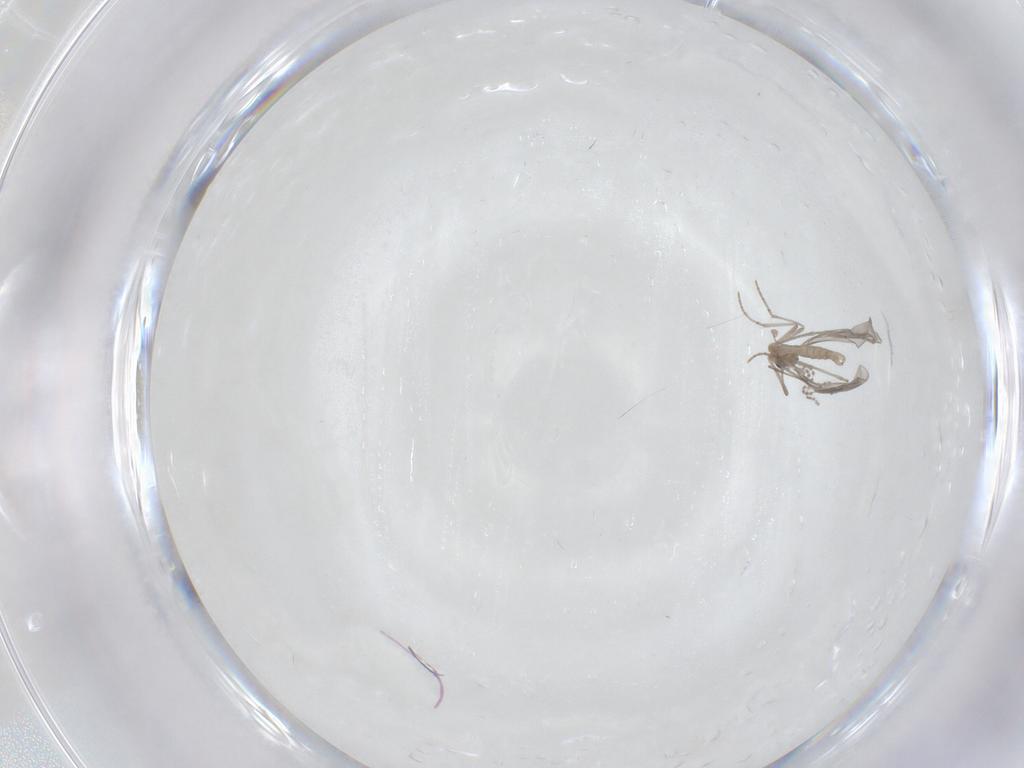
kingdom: Animalia
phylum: Arthropoda
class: Insecta
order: Diptera
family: Cecidomyiidae
